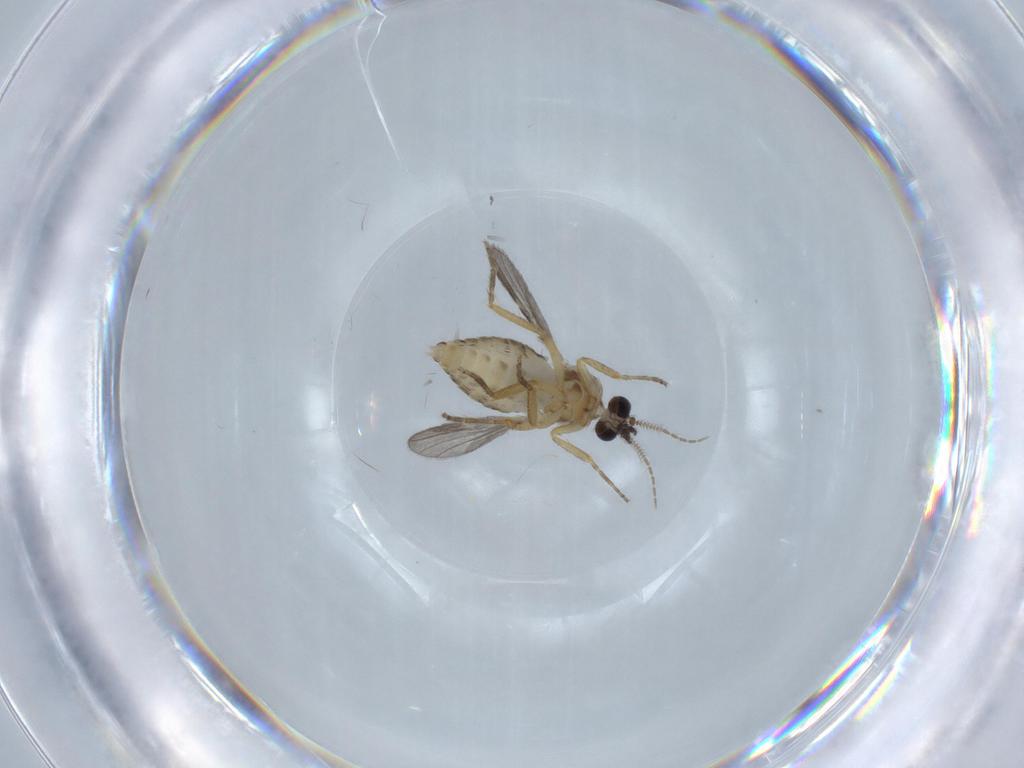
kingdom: Animalia
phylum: Arthropoda
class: Insecta
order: Diptera
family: Ceratopogonidae
